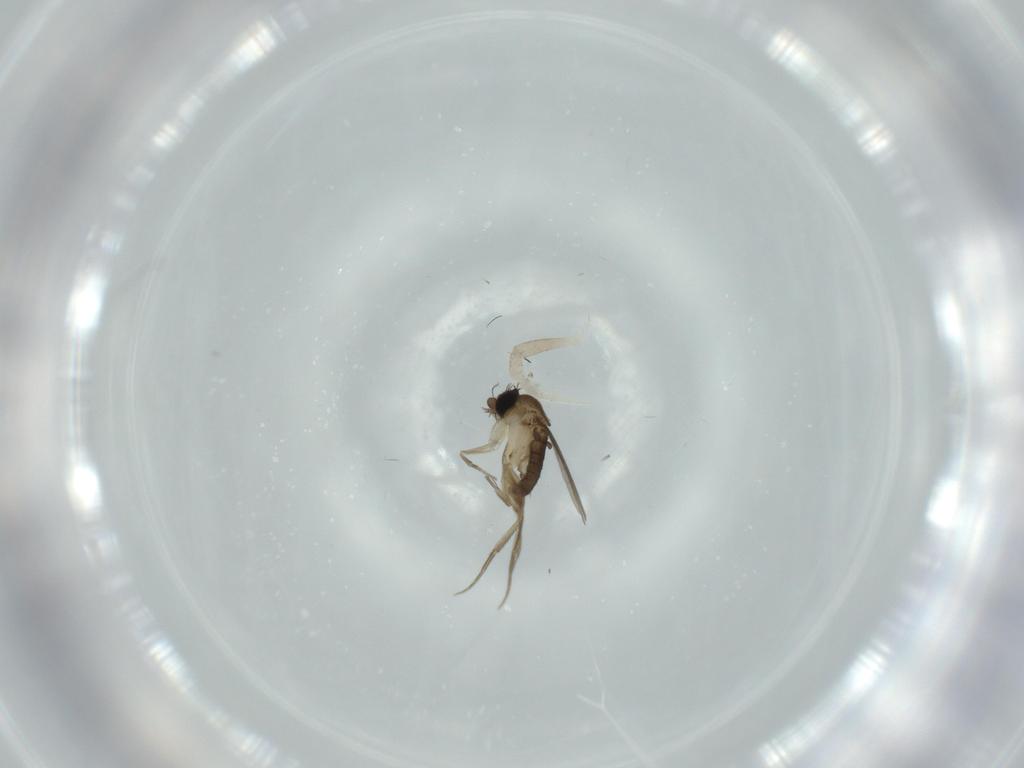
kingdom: Animalia
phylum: Arthropoda
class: Insecta
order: Diptera
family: Phoridae
